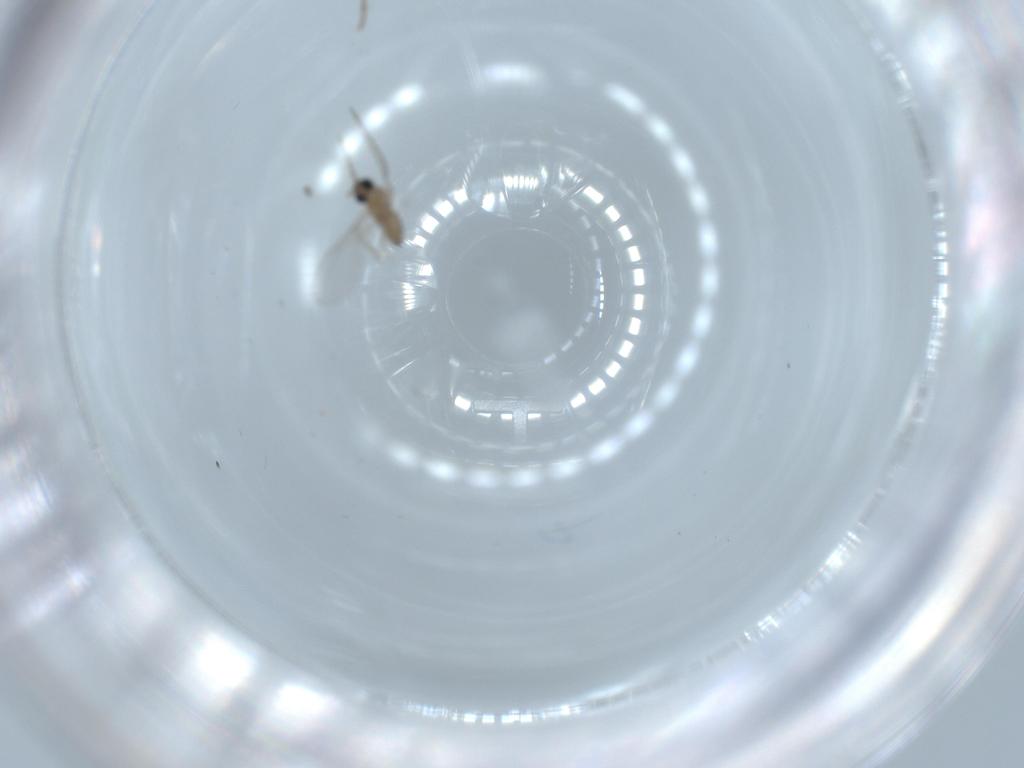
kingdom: Animalia
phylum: Arthropoda
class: Insecta
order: Diptera
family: Cecidomyiidae
